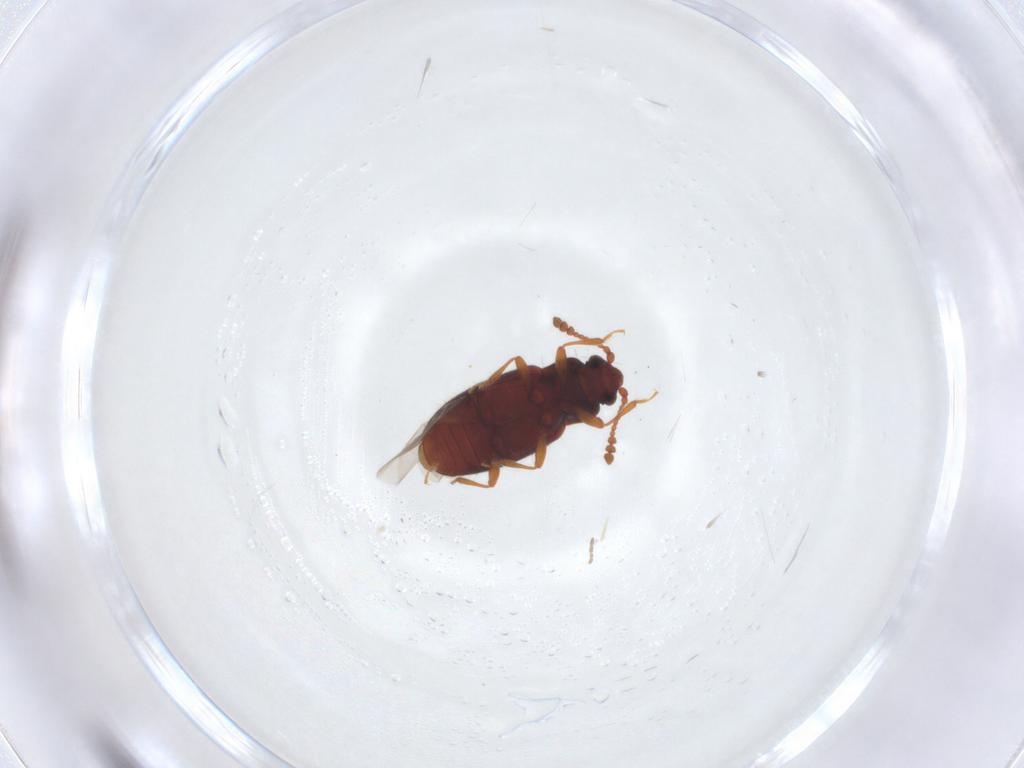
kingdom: Animalia
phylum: Arthropoda
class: Insecta
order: Coleoptera
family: Cryptophagidae
